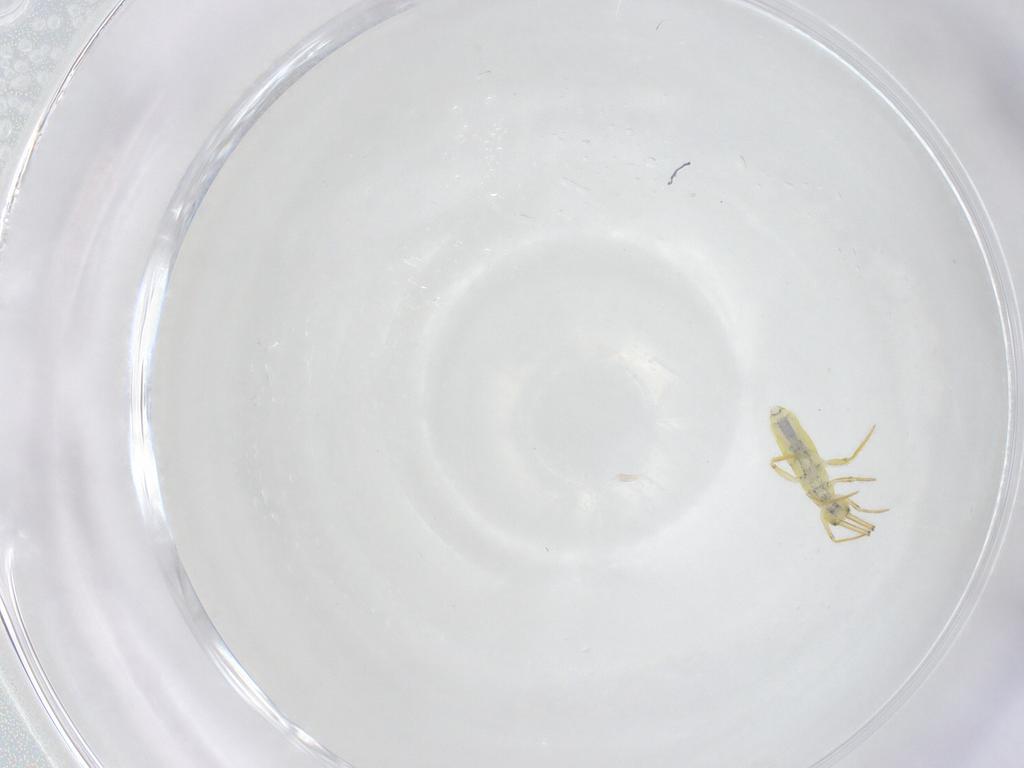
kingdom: Animalia
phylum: Arthropoda
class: Collembola
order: Entomobryomorpha
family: Entomobryidae
